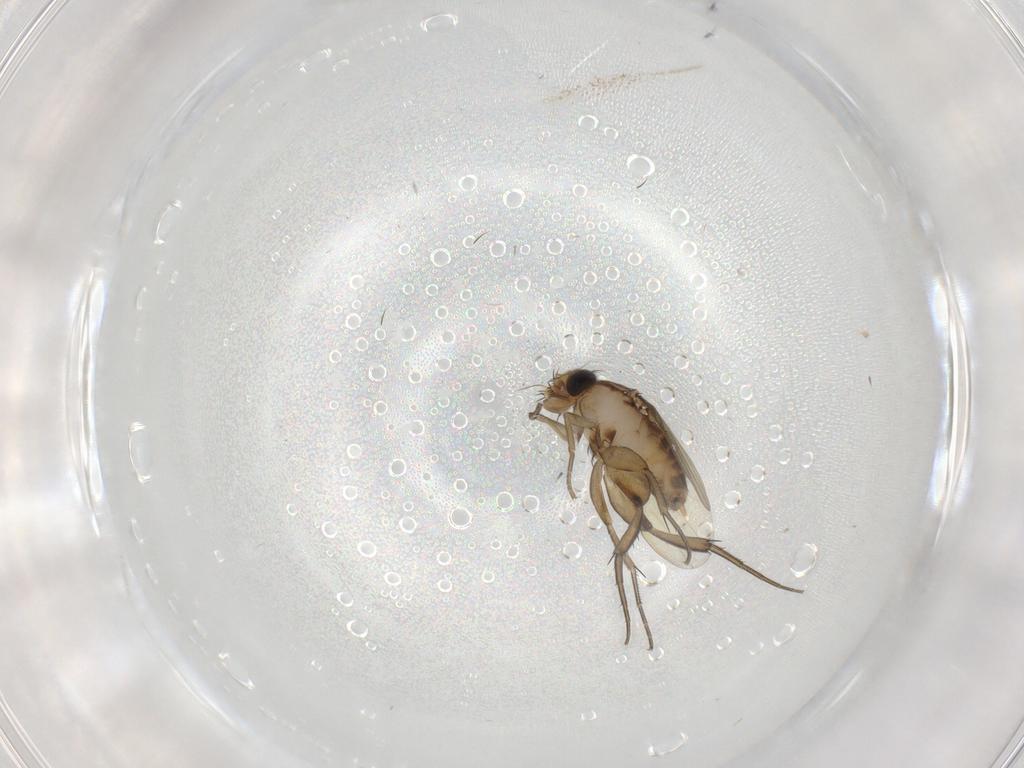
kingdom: Animalia
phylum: Arthropoda
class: Insecta
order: Diptera
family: Phoridae
